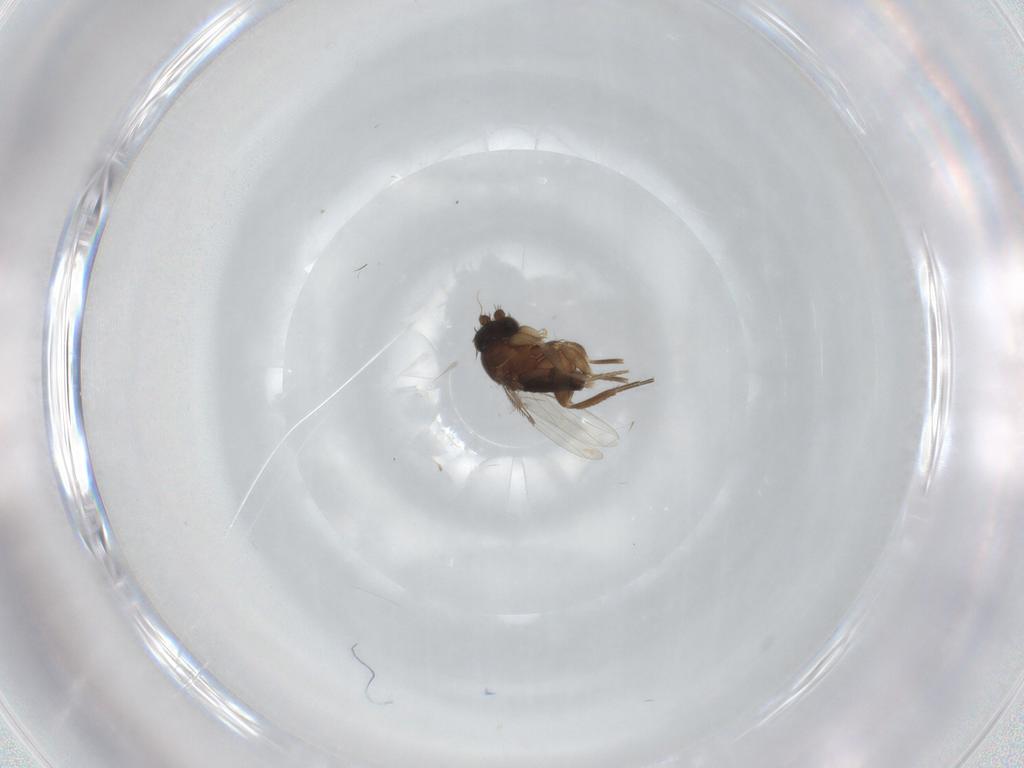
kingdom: Animalia
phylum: Arthropoda
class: Insecta
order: Diptera
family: Phoridae
